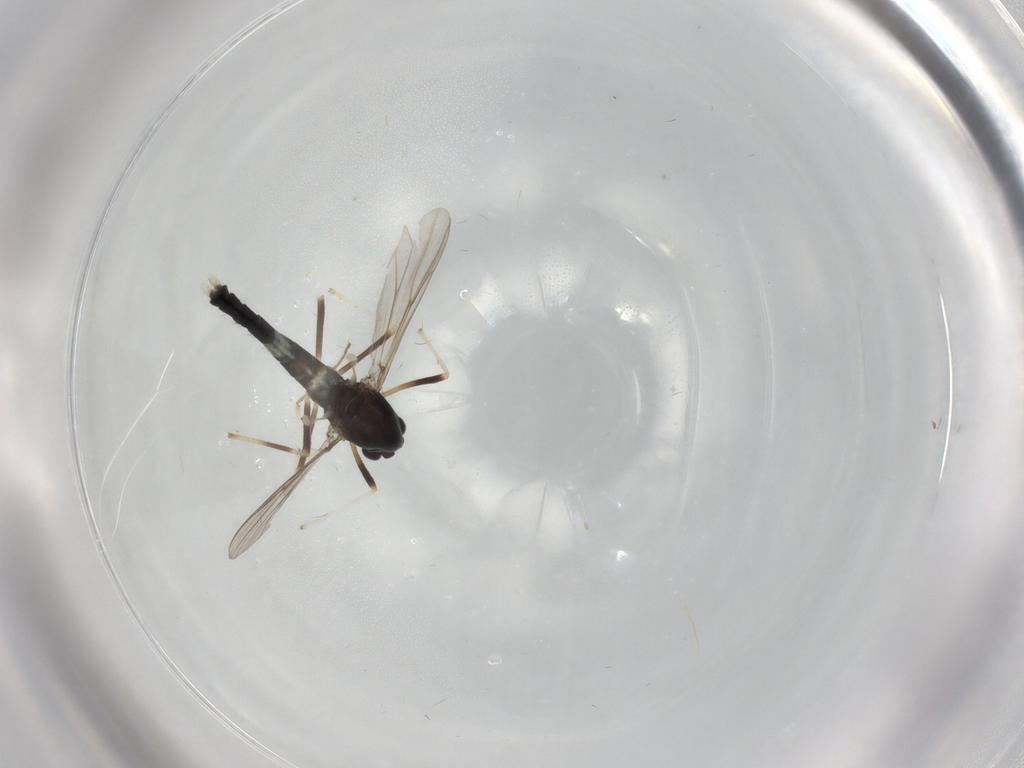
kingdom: Animalia
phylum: Arthropoda
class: Insecta
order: Diptera
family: Chironomidae
